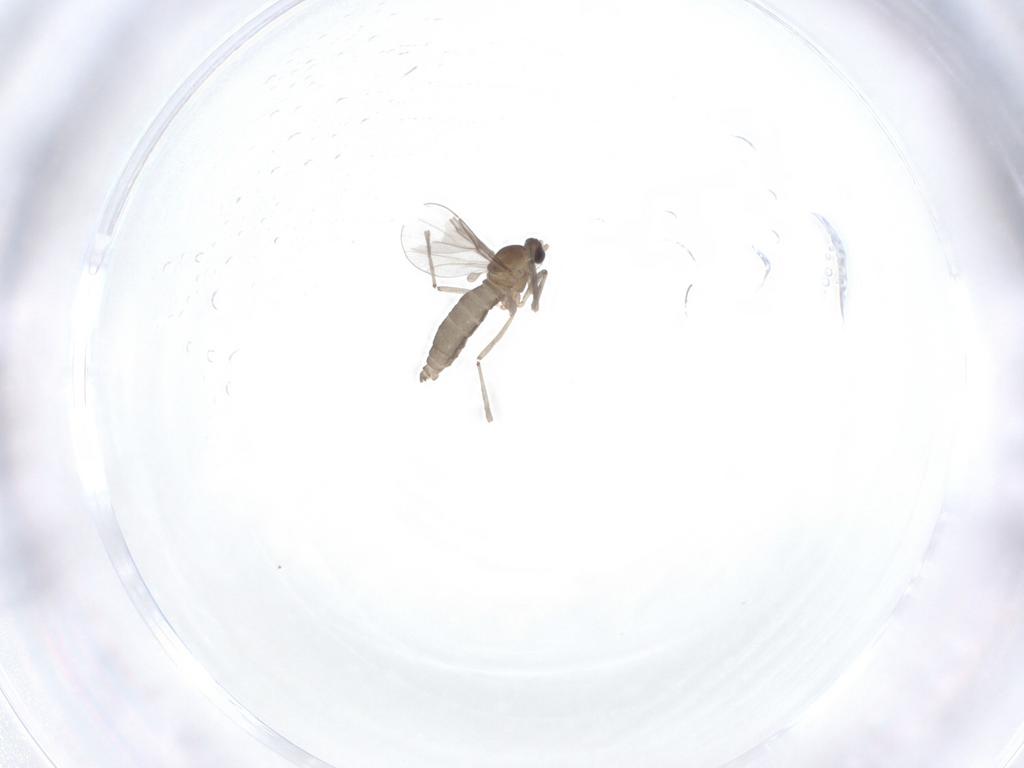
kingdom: Animalia
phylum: Arthropoda
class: Insecta
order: Diptera
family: Cecidomyiidae
